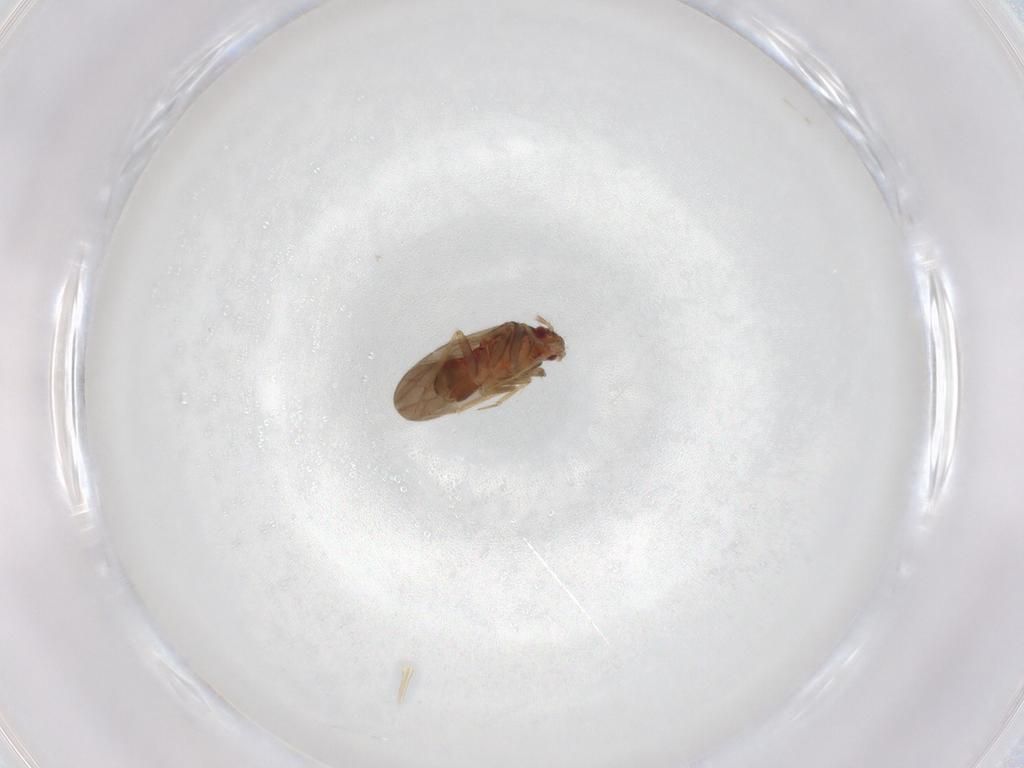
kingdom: Animalia
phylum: Arthropoda
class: Insecta
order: Hemiptera
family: Ceratocombidae
